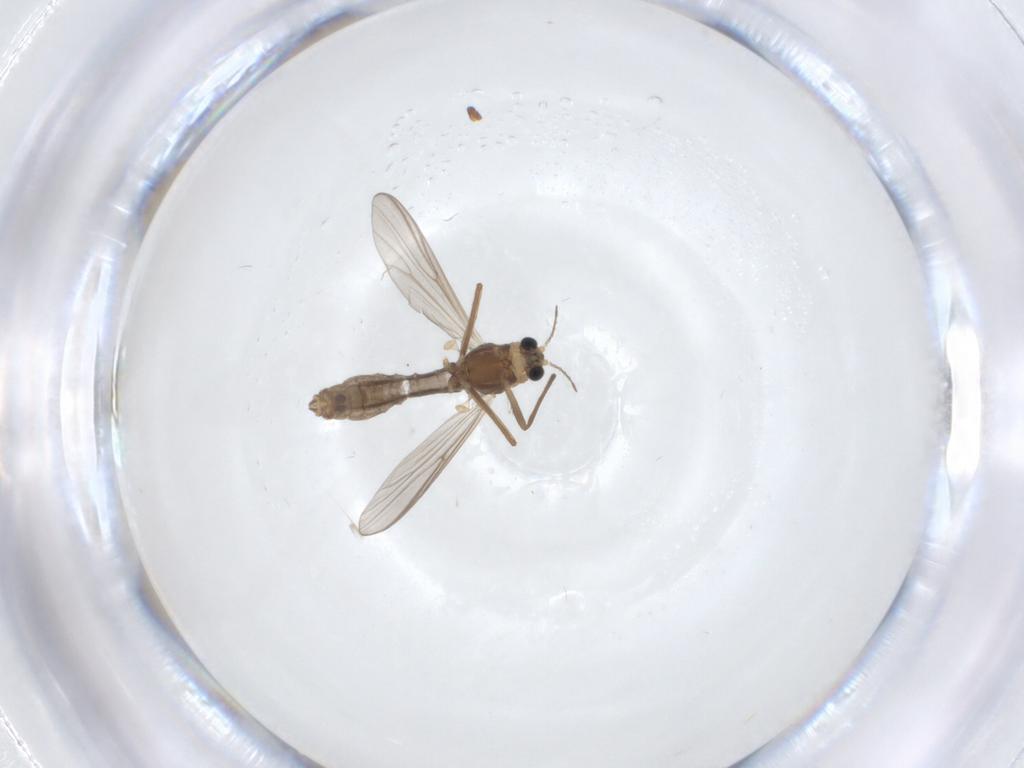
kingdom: Animalia
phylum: Arthropoda
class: Insecta
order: Diptera
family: Chironomidae
